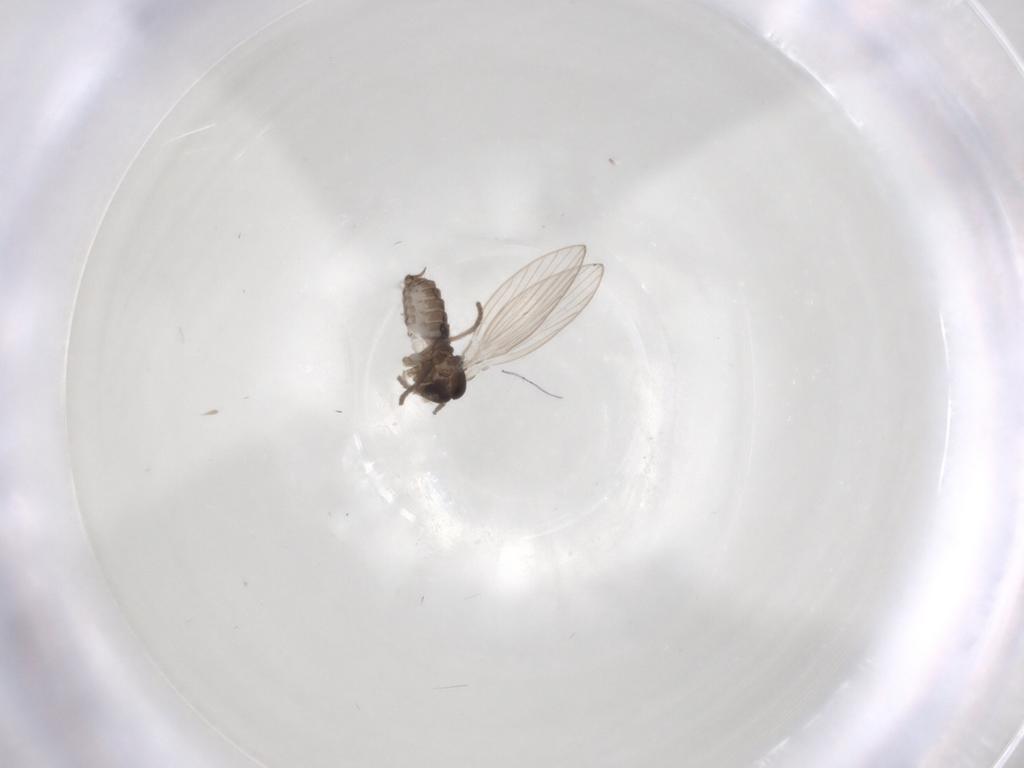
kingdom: Animalia
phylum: Arthropoda
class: Insecta
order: Diptera
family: Psychodidae
